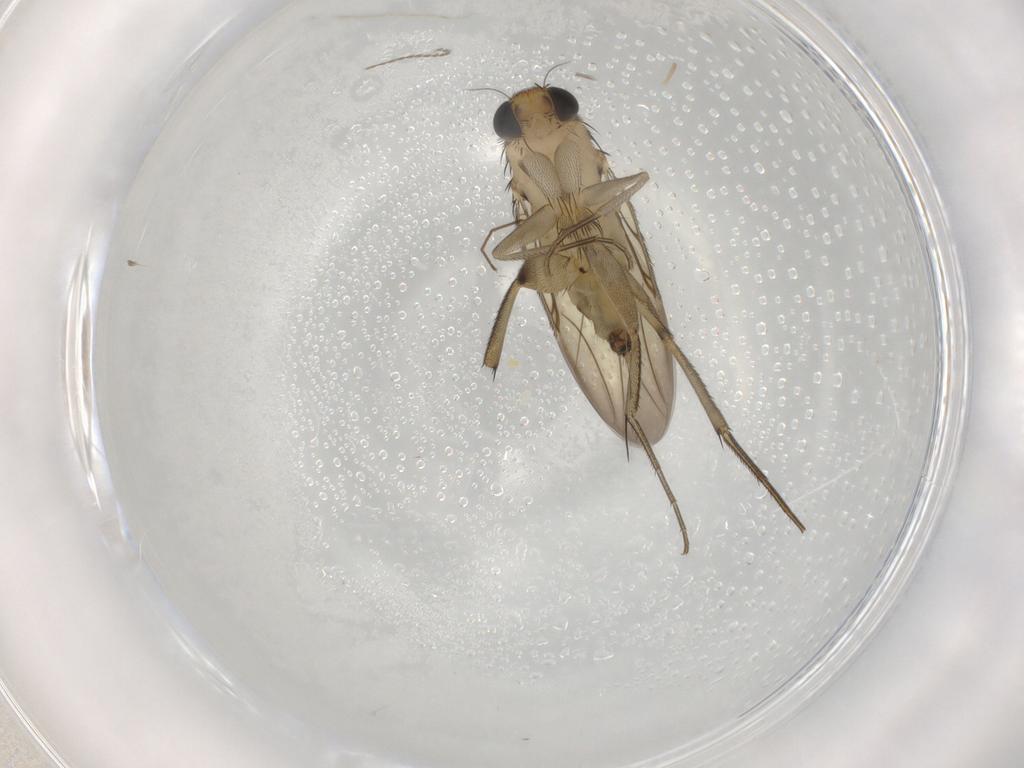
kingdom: Animalia
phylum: Arthropoda
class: Insecta
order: Diptera
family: Phoridae
